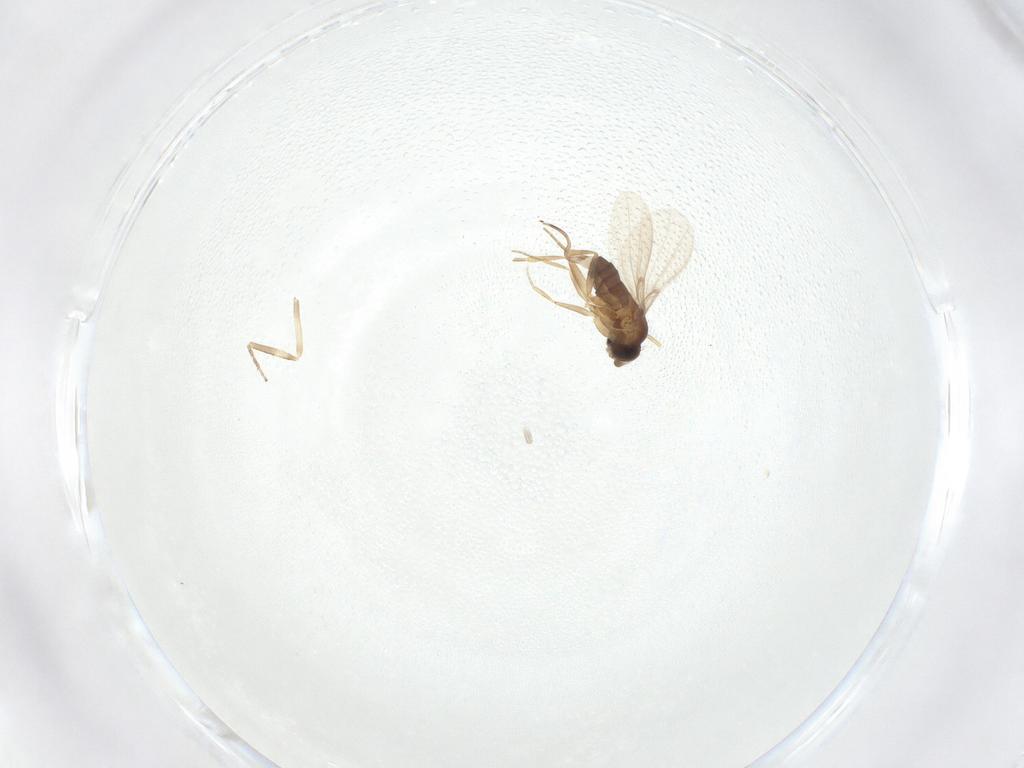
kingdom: Animalia
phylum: Arthropoda
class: Insecta
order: Diptera
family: Phoridae
